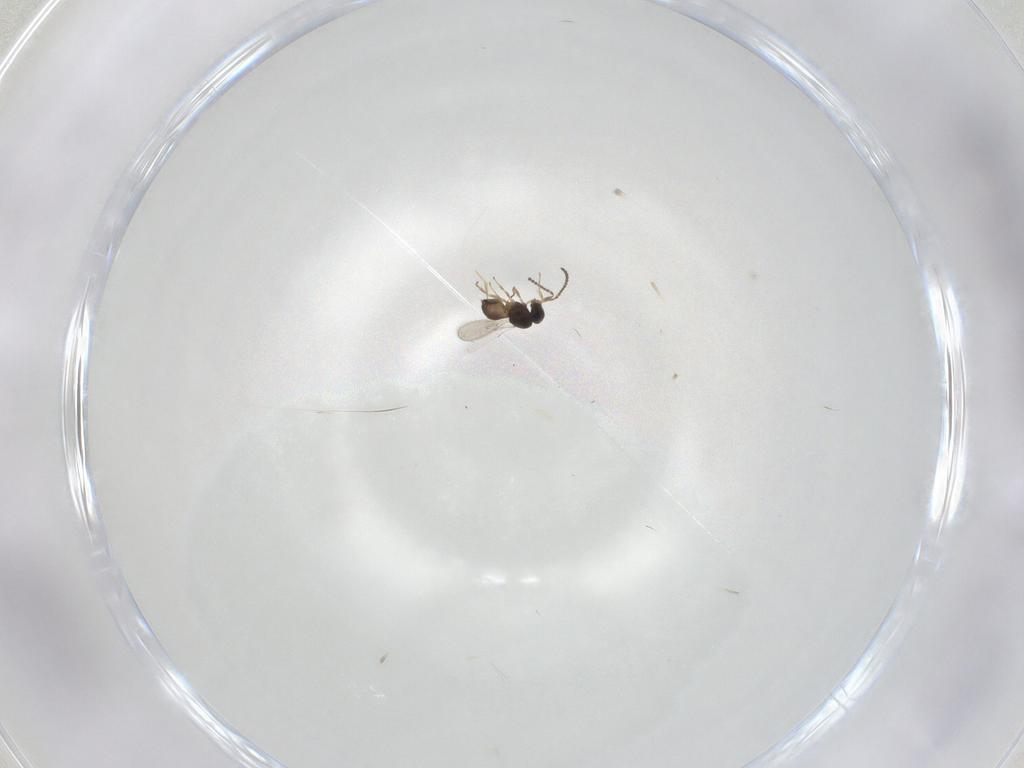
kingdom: Animalia
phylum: Arthropoda
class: Insecta
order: Hymenoptera
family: Scelionidae
